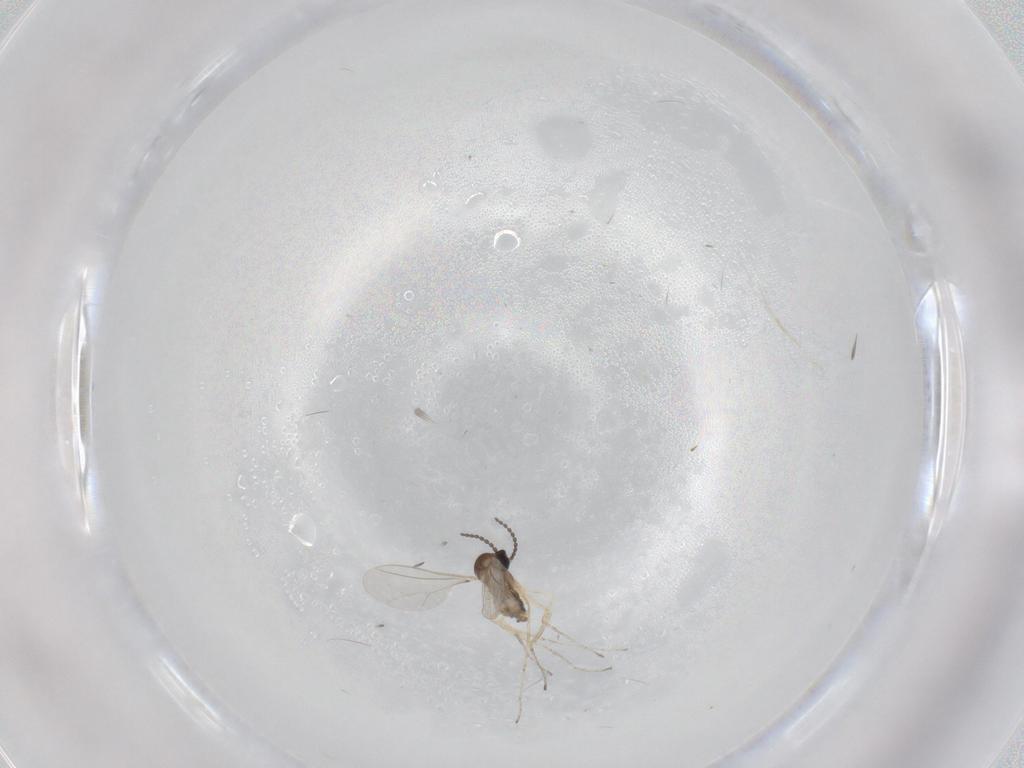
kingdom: Animalia
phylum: Arthropoda
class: Insecta
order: Diptera
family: Cecidomyiidae
